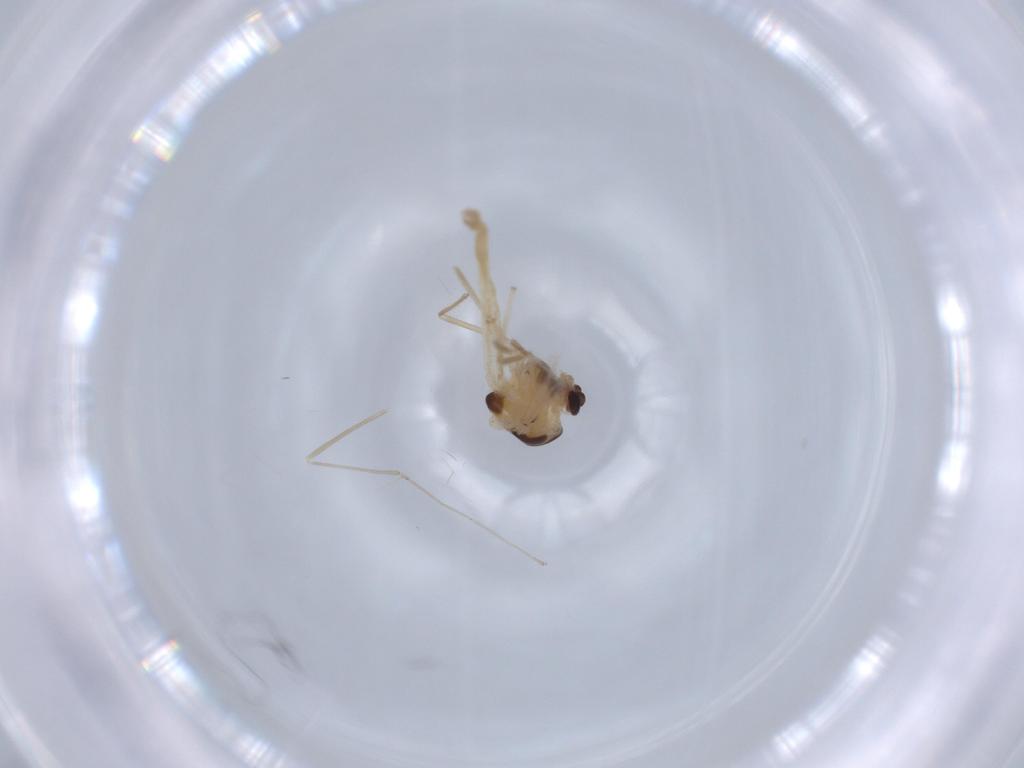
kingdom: Animalia
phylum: Arthropoda
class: Insecta
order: Diptera
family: Chironomidae
